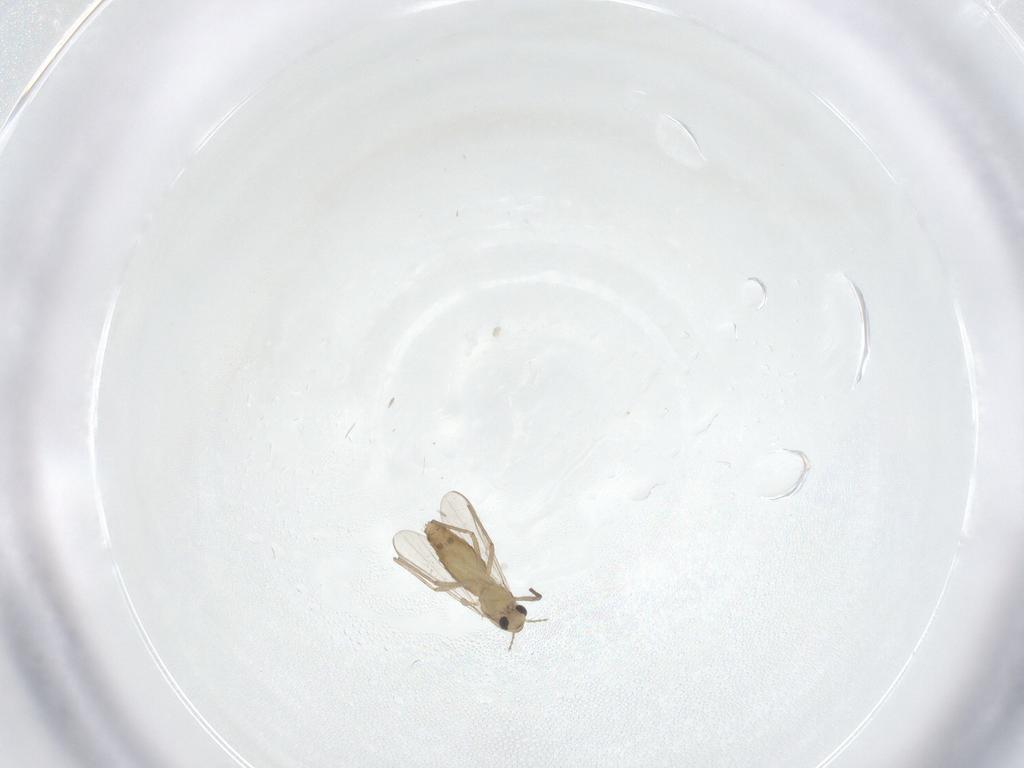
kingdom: Animalia
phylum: Arthropoda
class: Insecta
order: Diptera
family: Chironomidae
